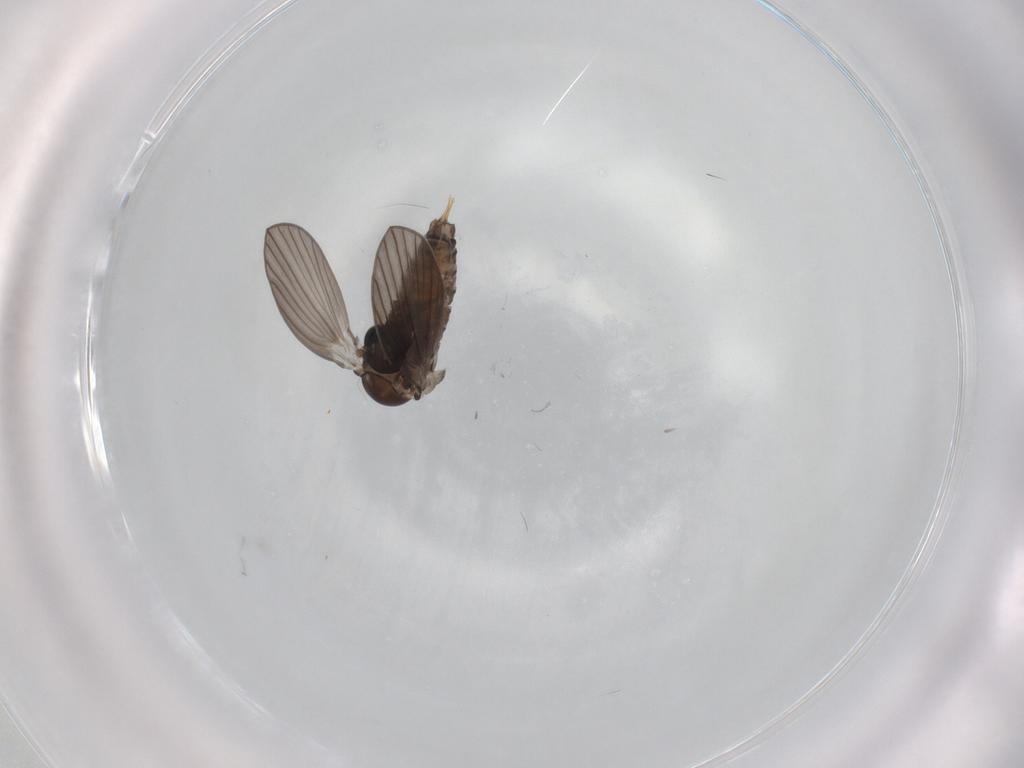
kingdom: Animalia
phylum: Arthropoda
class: Insecta
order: Diptera
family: Psychodidae
